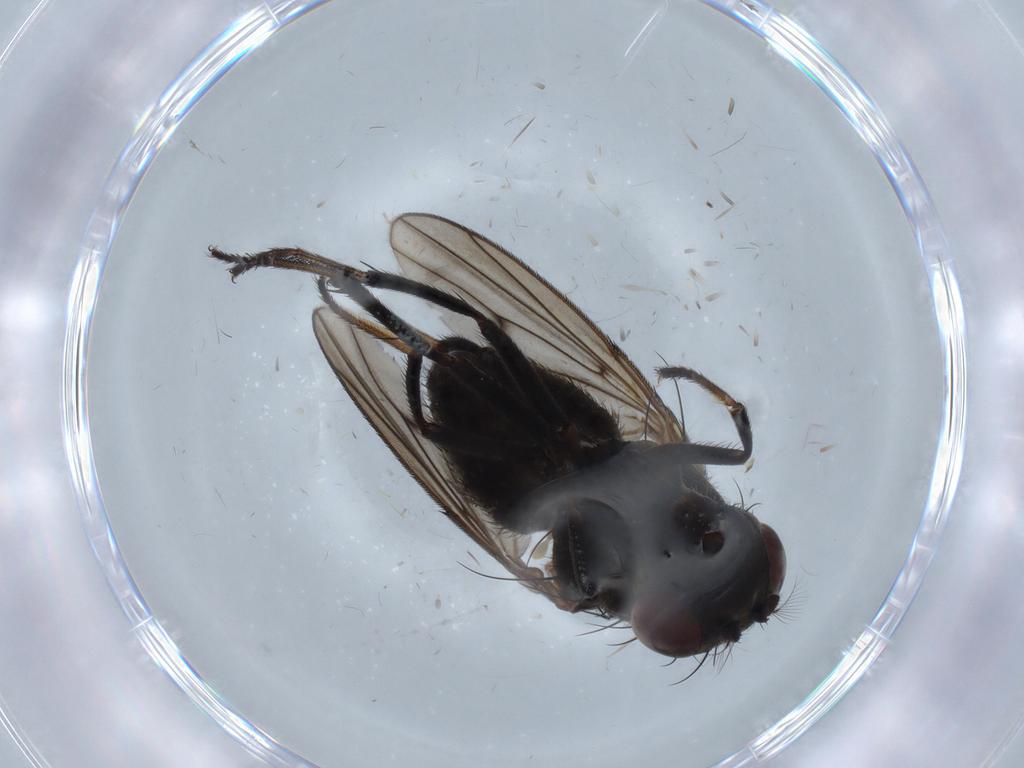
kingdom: Animalia
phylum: Arthropoda
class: Insecta
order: Diptera
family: Ephydridae
